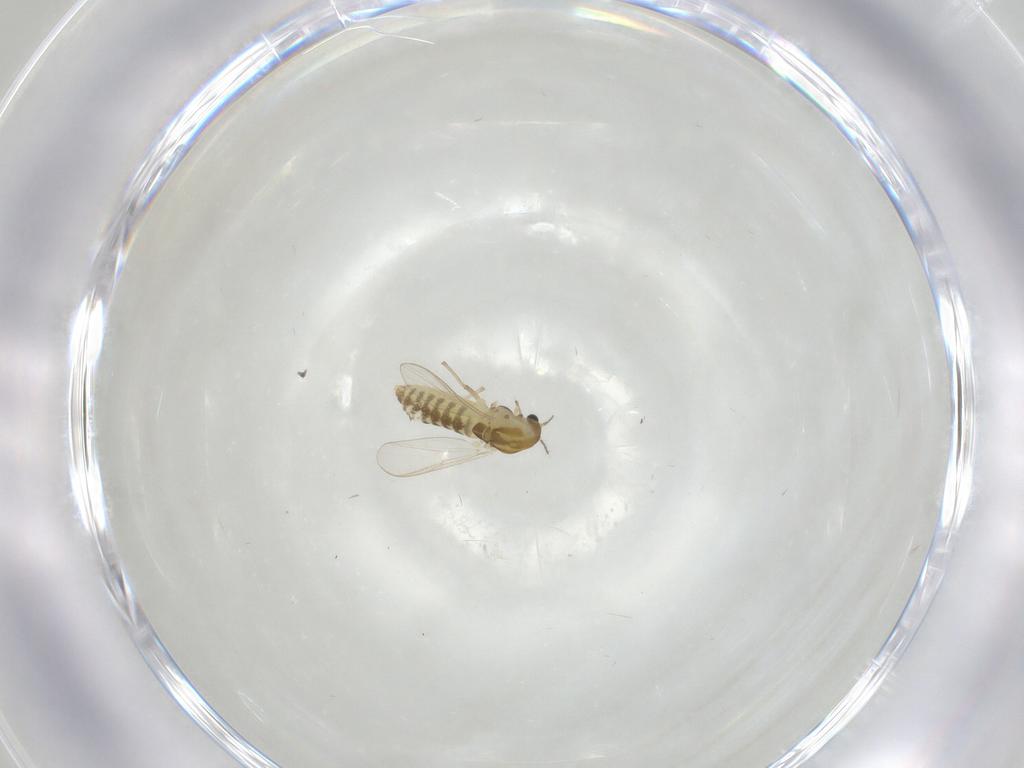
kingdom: Animalia
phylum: Arthropoda
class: Insecta
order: Diptera
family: Chironomidae
